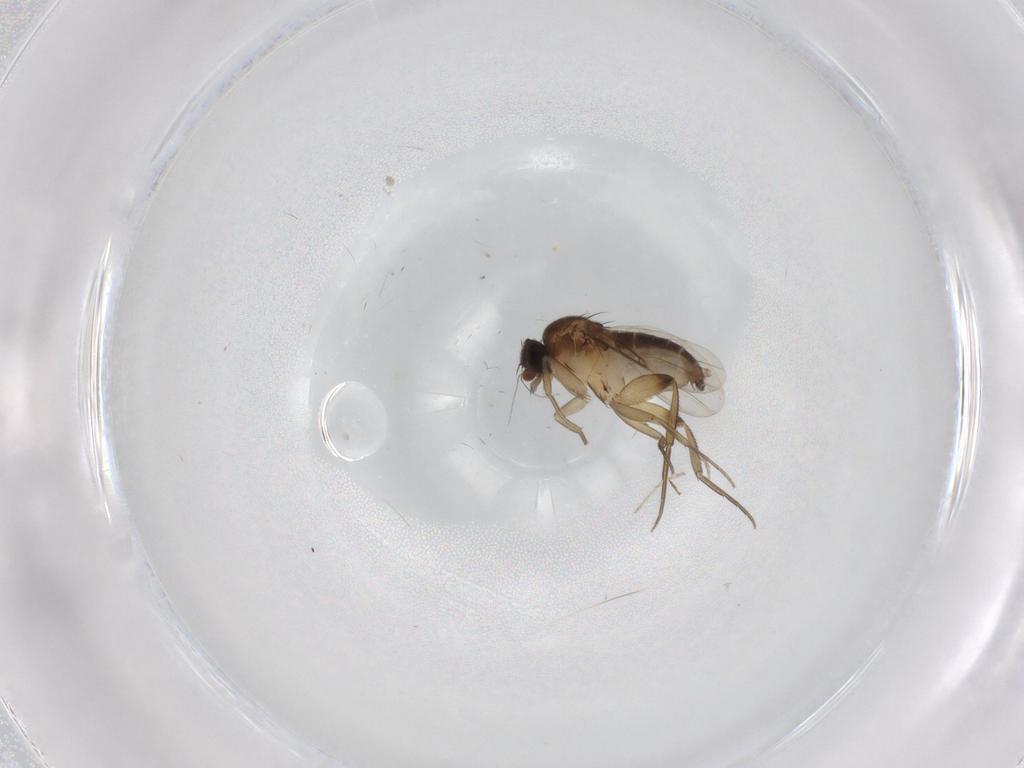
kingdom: Animalia
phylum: Arthropoda
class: Insecta
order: Diptera
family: Phoridae
